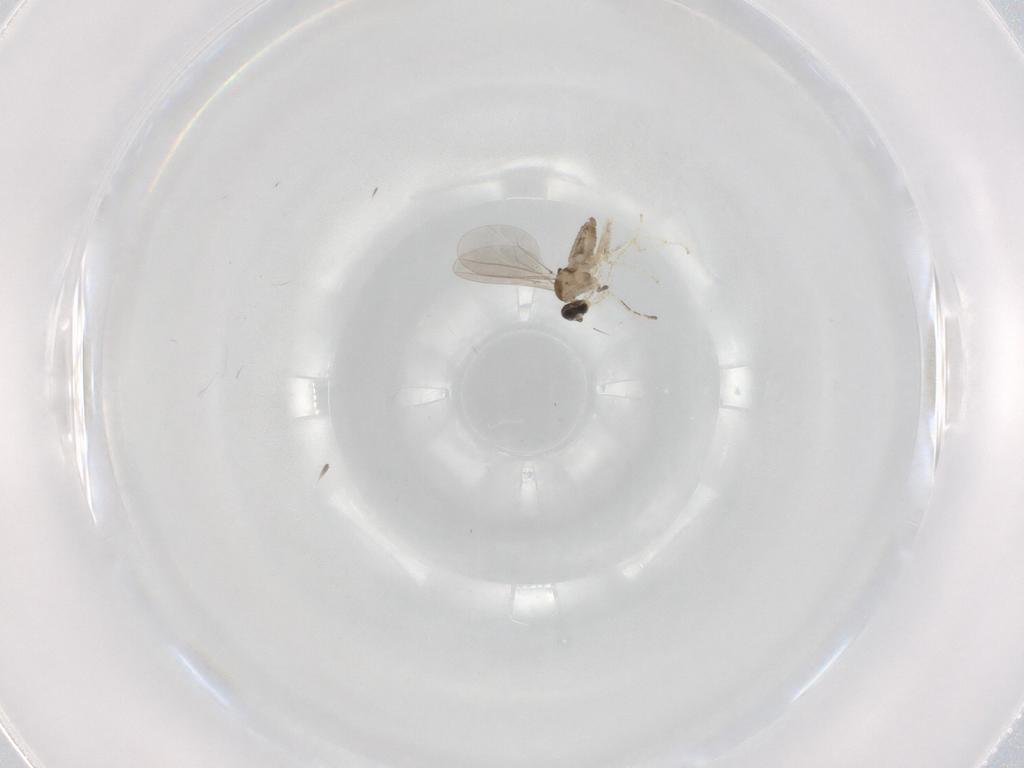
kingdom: Animalia
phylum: Arthropoda
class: Insecta
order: Diptera
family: Cecidomyiidae
